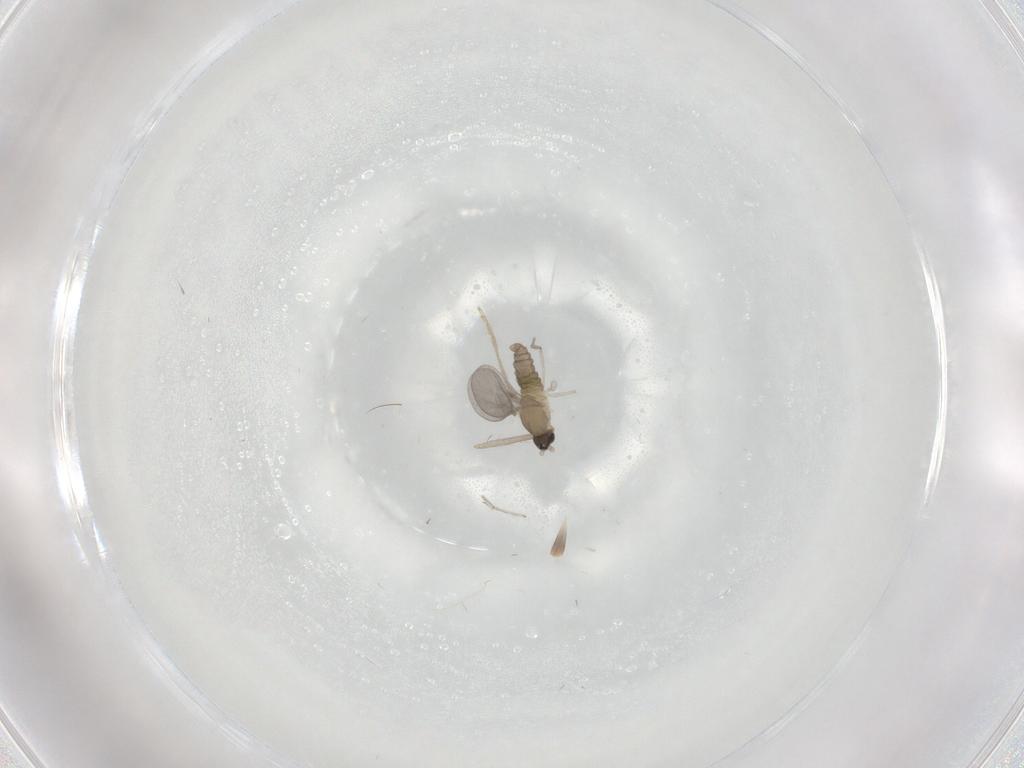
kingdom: Animalia
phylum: Arthropoda
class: Insecta
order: Diptera
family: Cecidomyiidae
